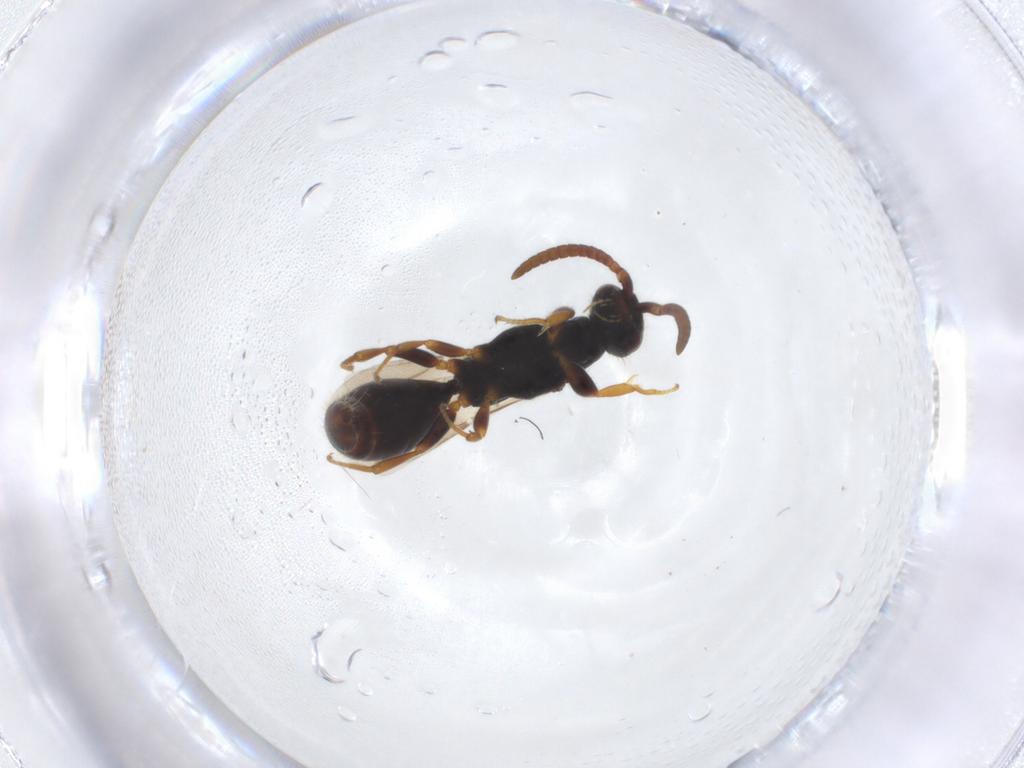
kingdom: Animalia
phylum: Arthropoda
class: Insecta
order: Hymenoptera
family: Bethylidae
